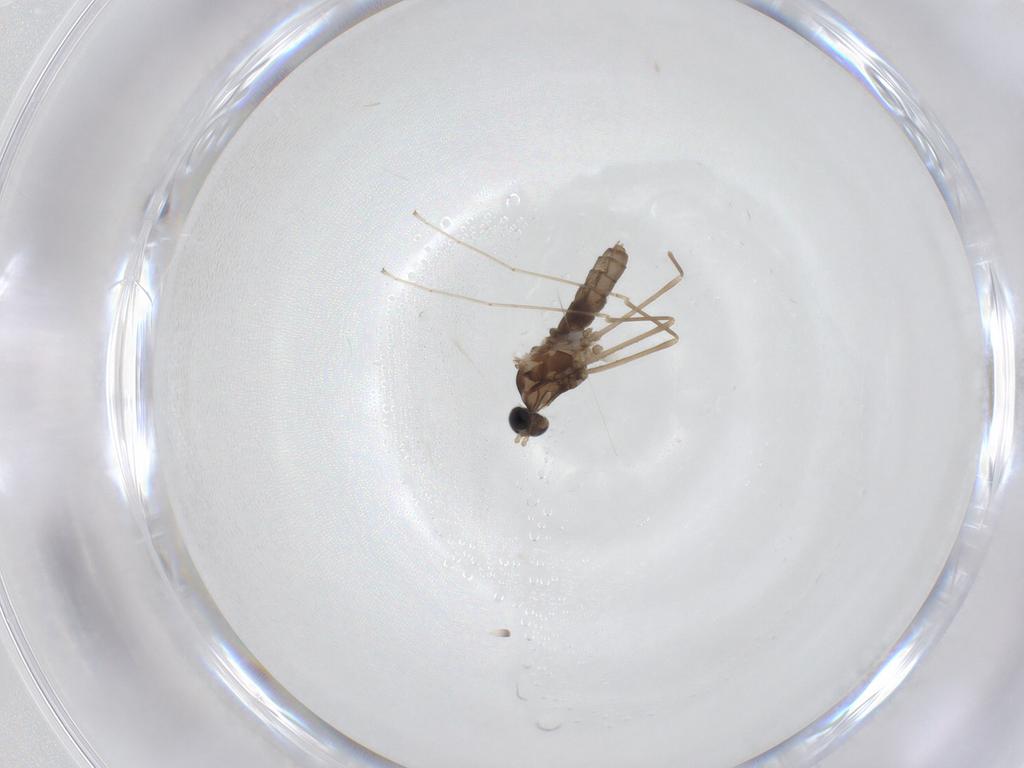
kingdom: Animalia
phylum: Arthropoda
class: Insecta
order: Diptera
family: Cecidomyiidae
